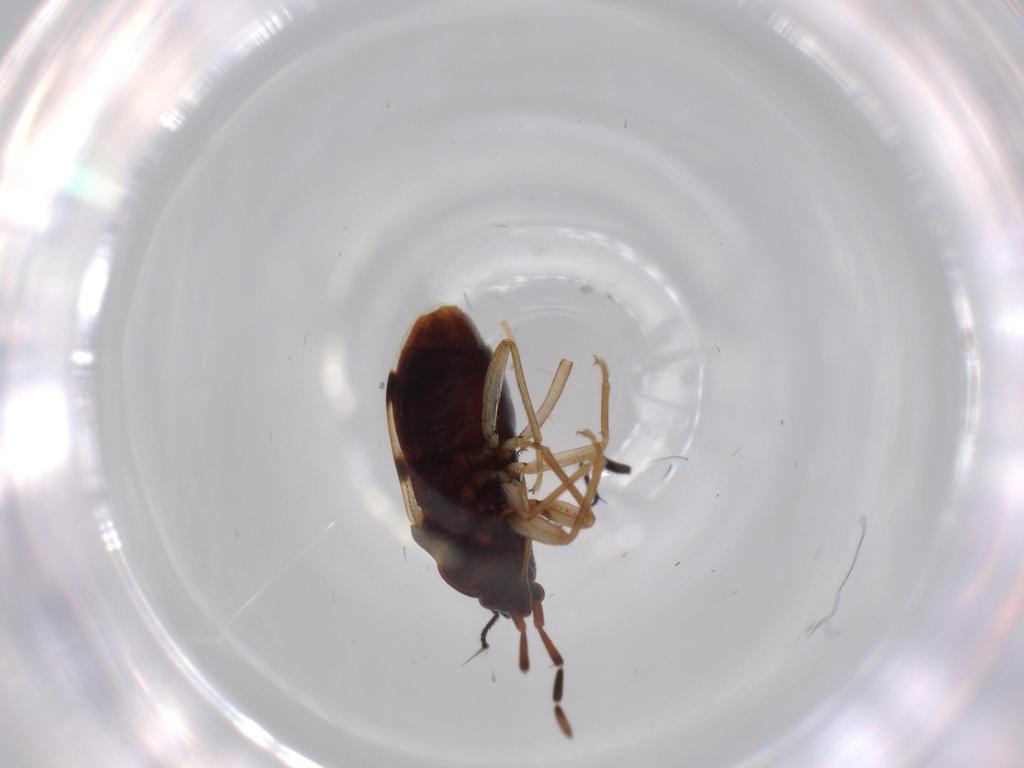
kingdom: Animalia
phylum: Arthropoda
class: Insecta
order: Hemiptera
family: Rhyparochromidae
